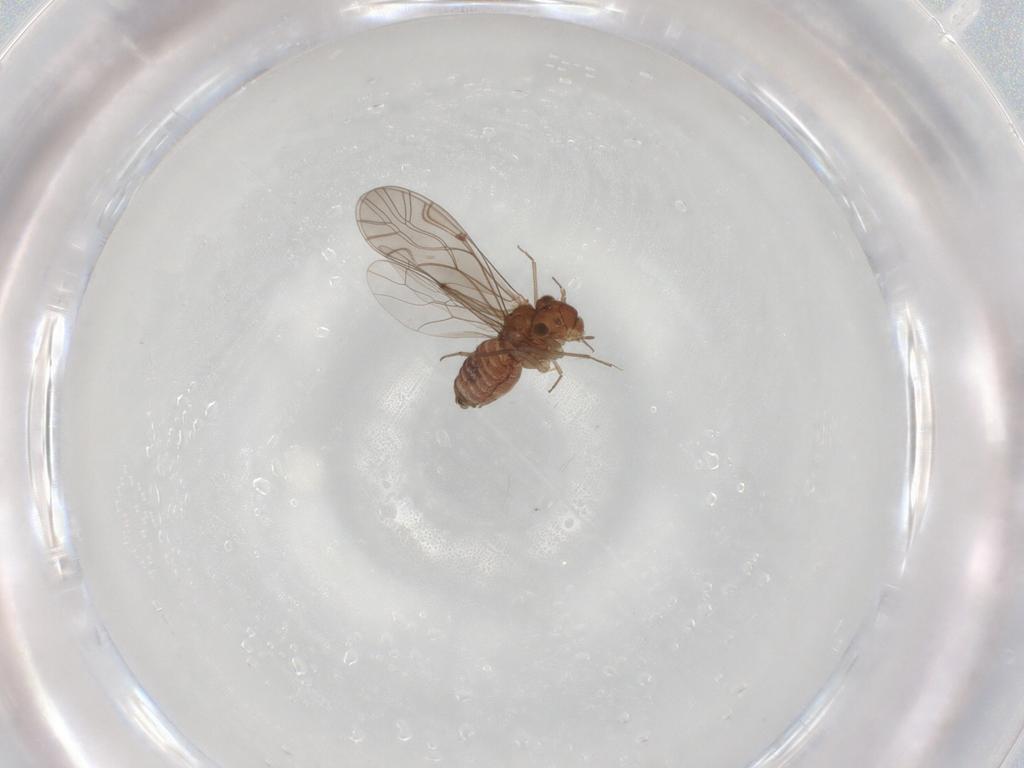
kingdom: Animalia
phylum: Arthropoda
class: Insecta
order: Psocodea
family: Lachesillidae
